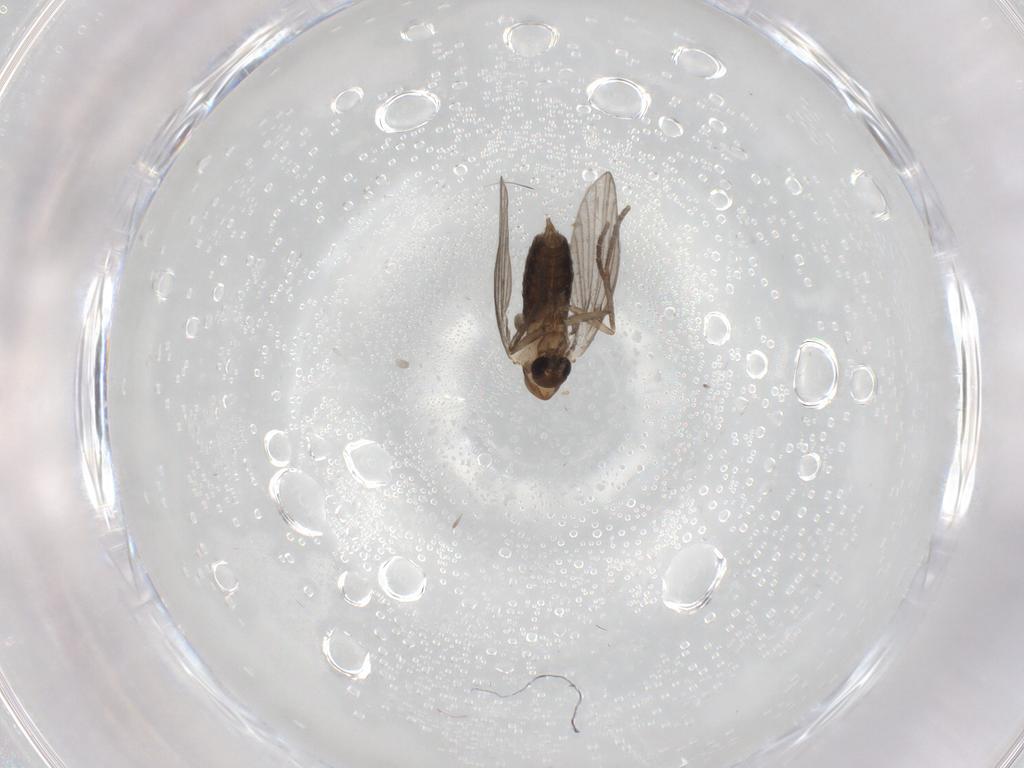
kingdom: Animalia
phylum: Arthropoda
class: Insecta
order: Diptera
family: Psychodidae
